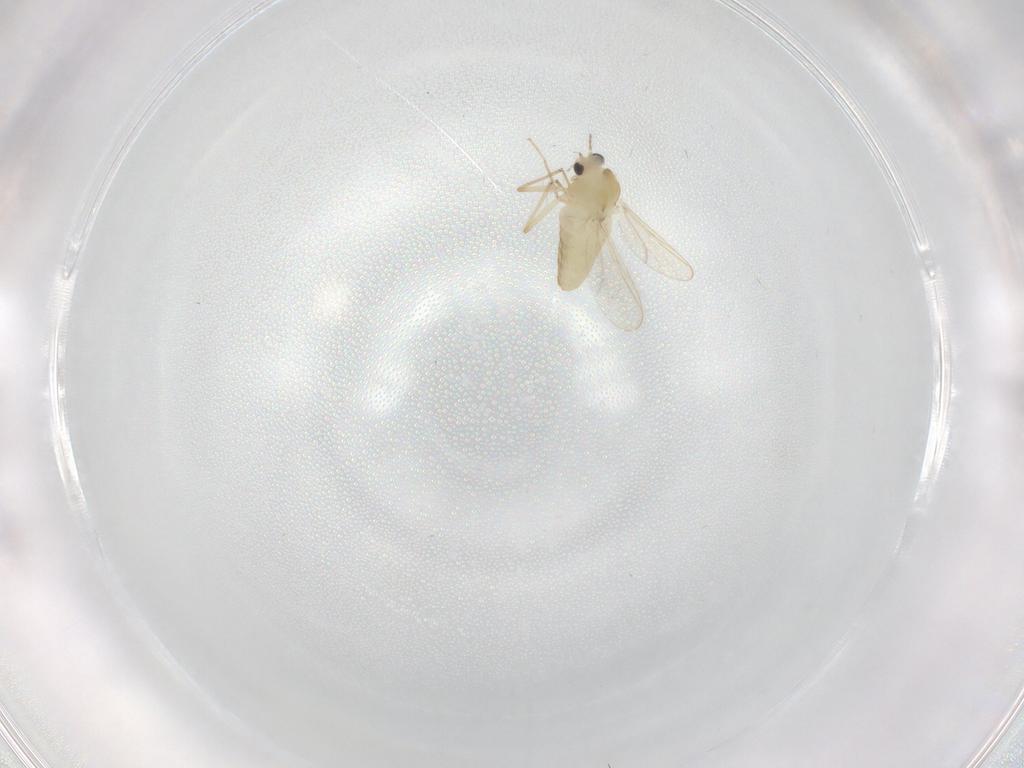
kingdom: Animalia
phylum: Arthropoda
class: Insecta
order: Diptera
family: Chironomidae
